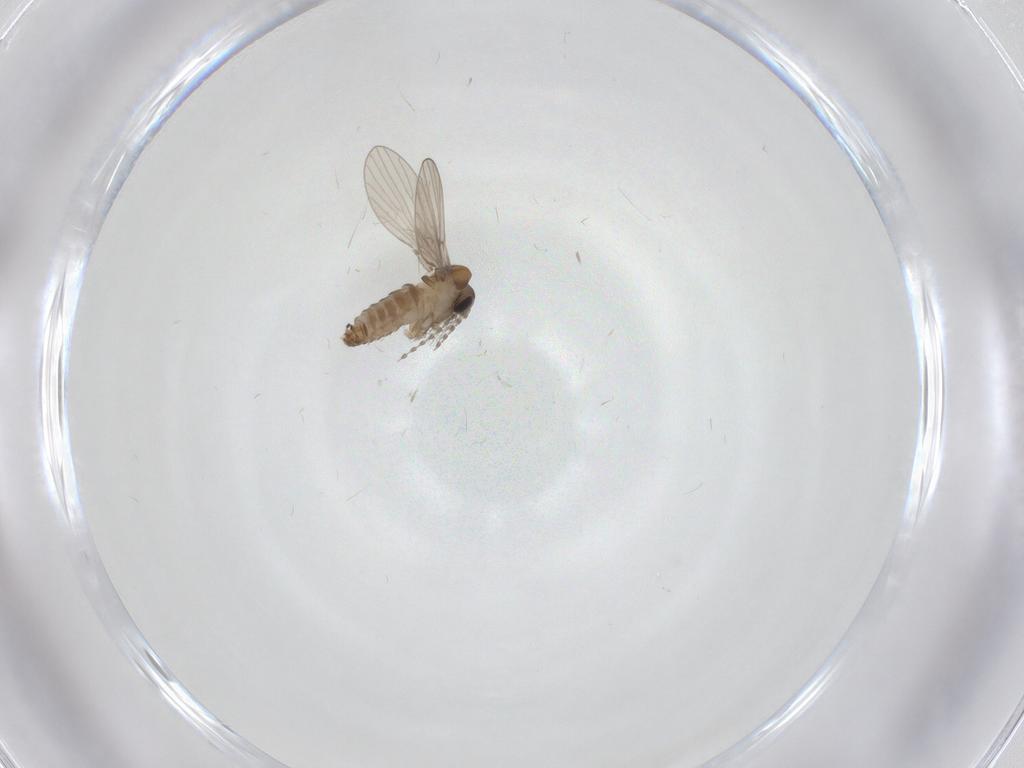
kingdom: Animalia
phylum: Arthropoda
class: Insecta
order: Diptera
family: Psychodidae
